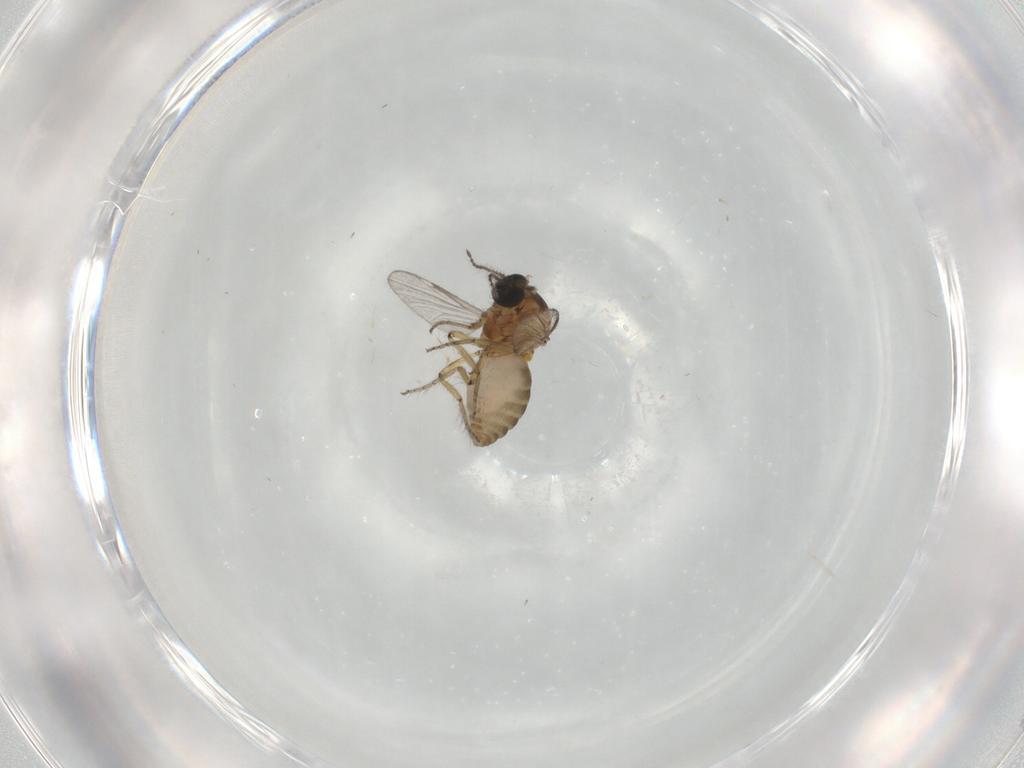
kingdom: Animalia
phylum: Arthropoda
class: Insecta
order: Diptera
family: Ceratopogonidae
